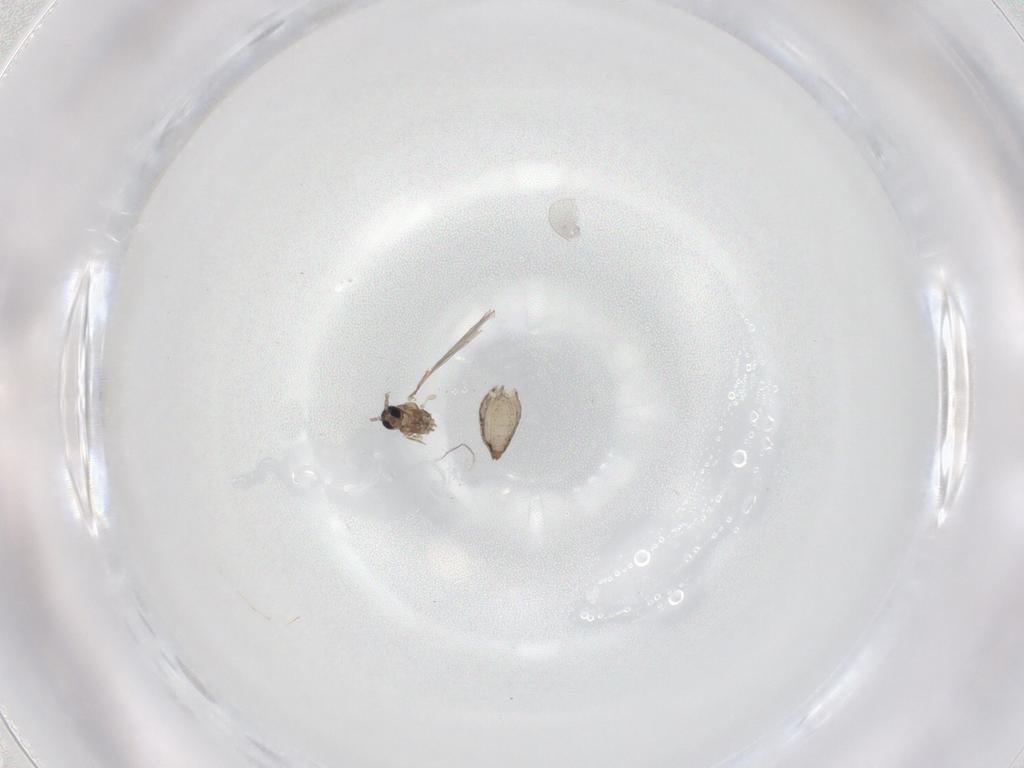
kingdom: Animalia
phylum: Arthropoda
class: Insecta
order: Diptera
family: Cecidomyiidae
